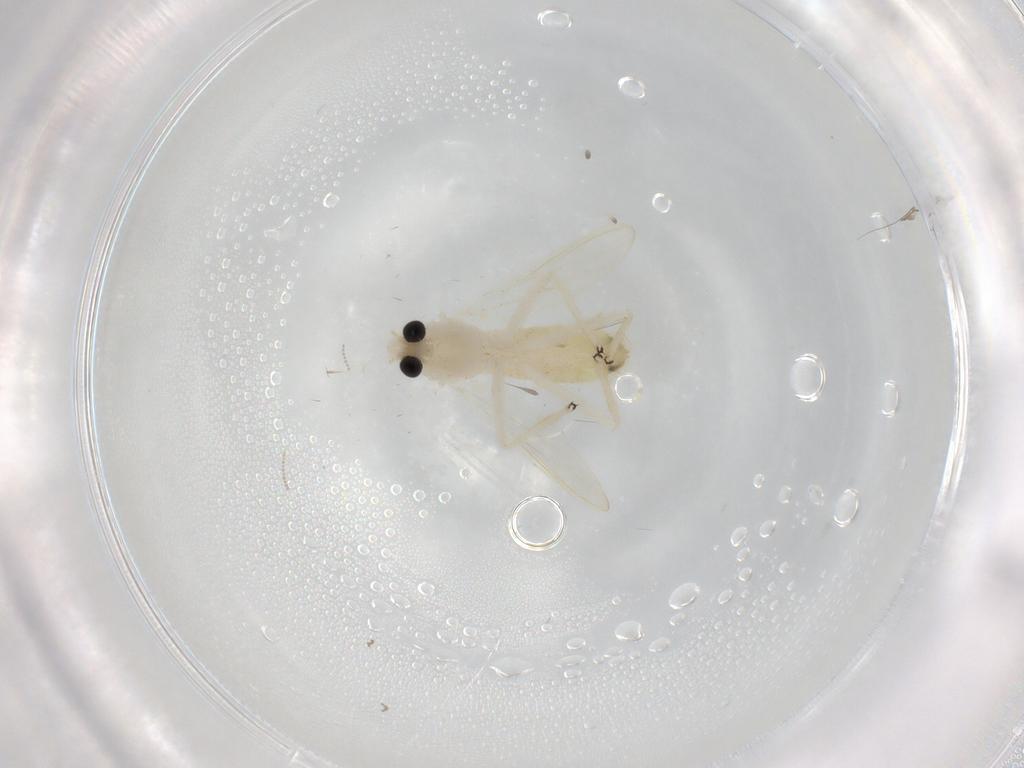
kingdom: Animalia
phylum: Arthropoda
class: Insecta
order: Diptera
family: Chironomidae
